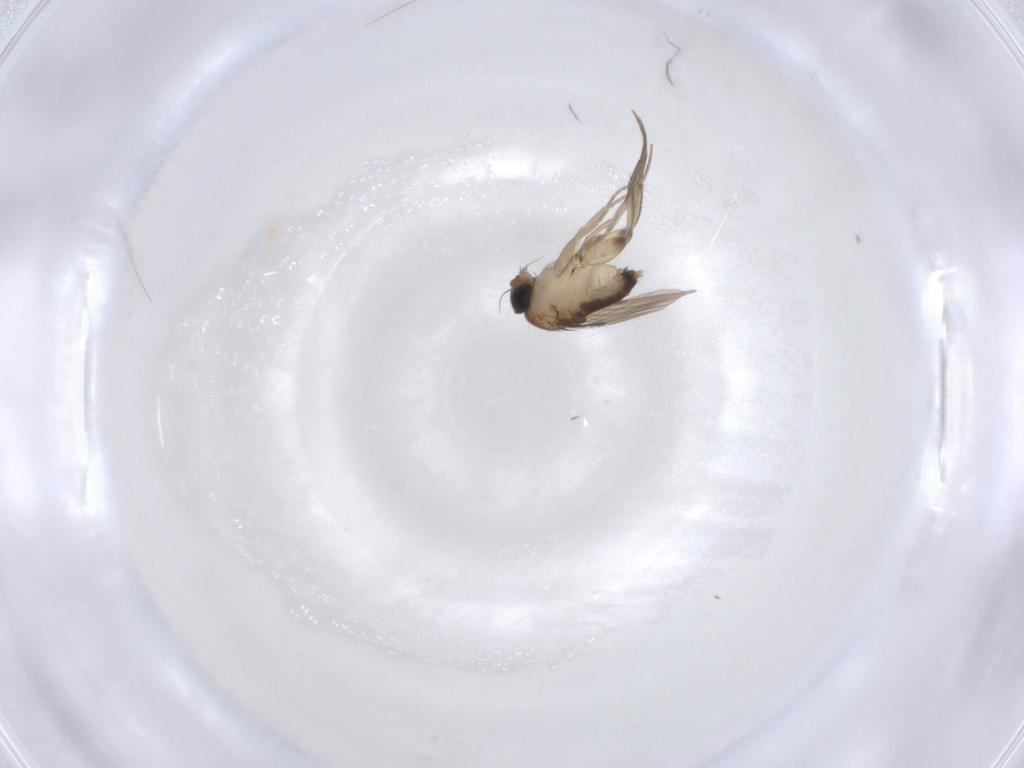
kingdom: Animalia
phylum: Arthropoda
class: Insecta
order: Diptera
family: Phoridae
